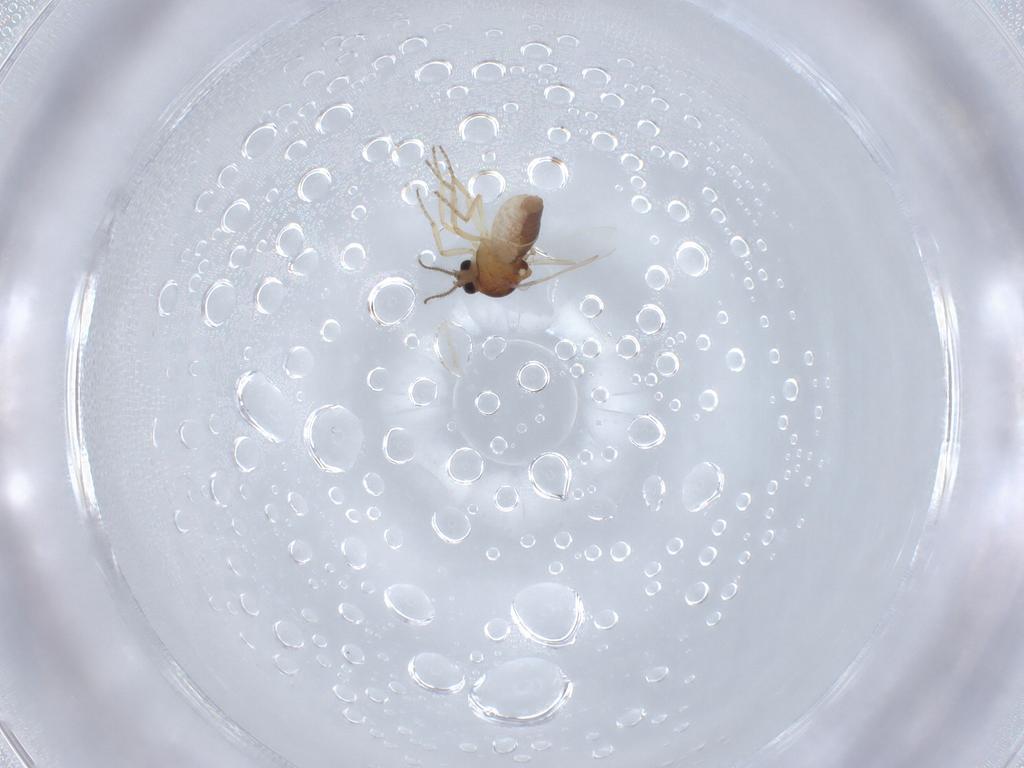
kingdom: Animalia
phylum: Arthropoda
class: Insecta
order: Diptera
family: Ceratopogonidae
